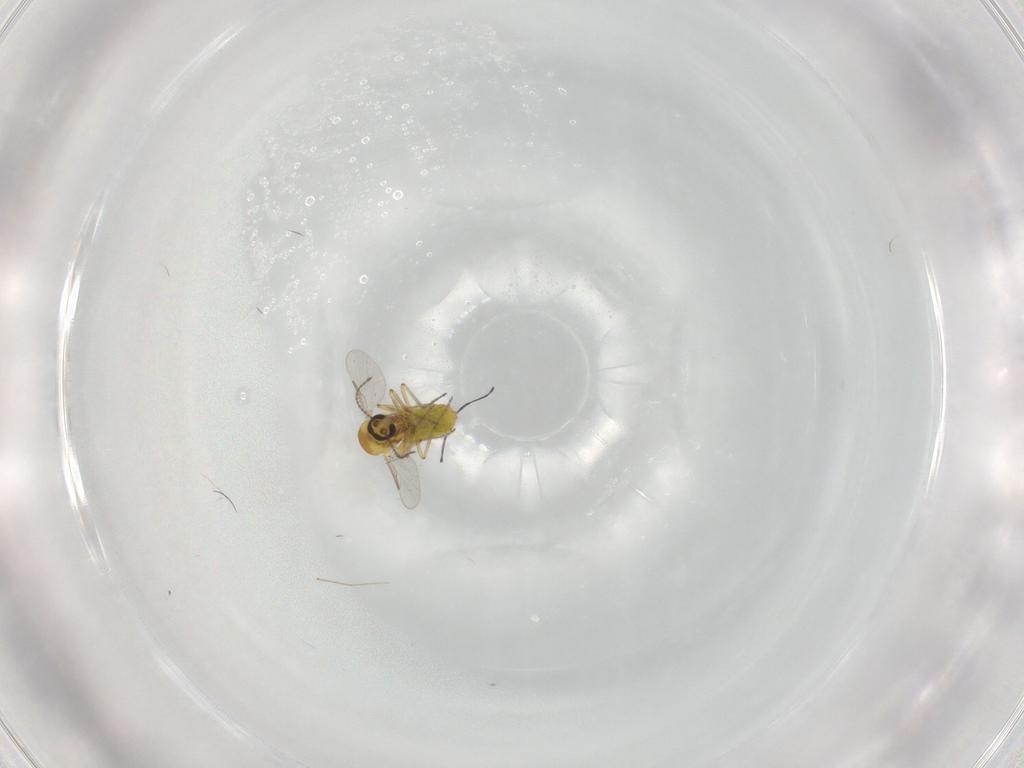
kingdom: Animalia
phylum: Arthropoda
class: Insecta
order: Diptera
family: Ceratopogonidae
